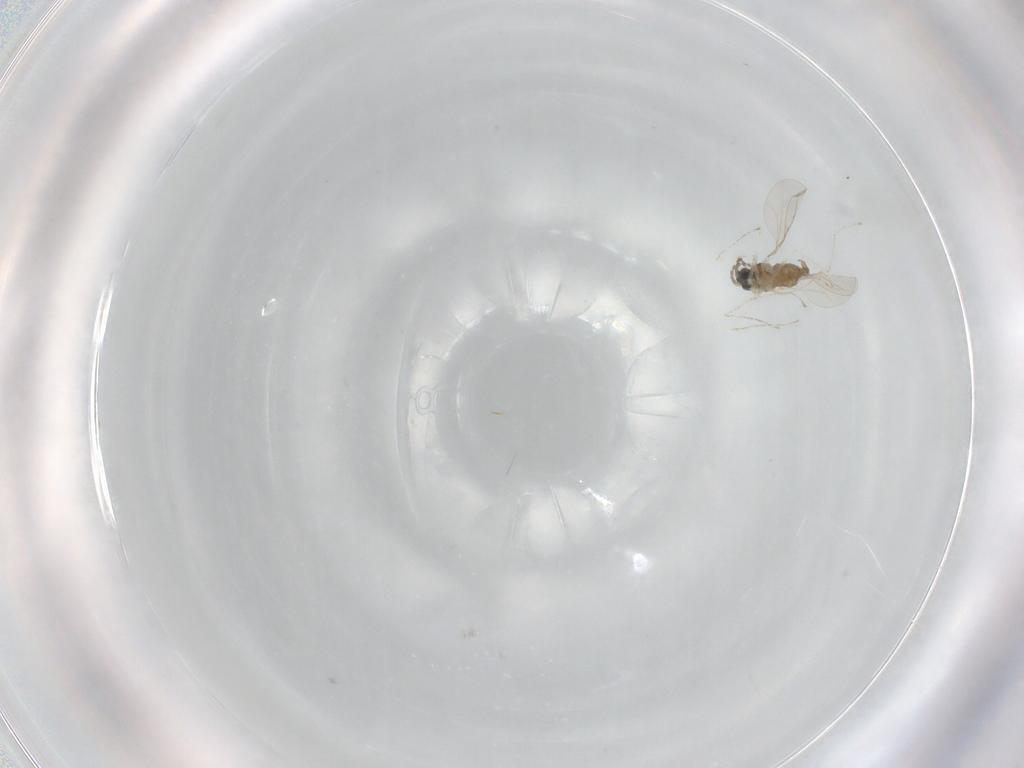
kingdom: Animalia
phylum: Arthropoda
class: Insecta
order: Diptera
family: Cecidomyiidae
